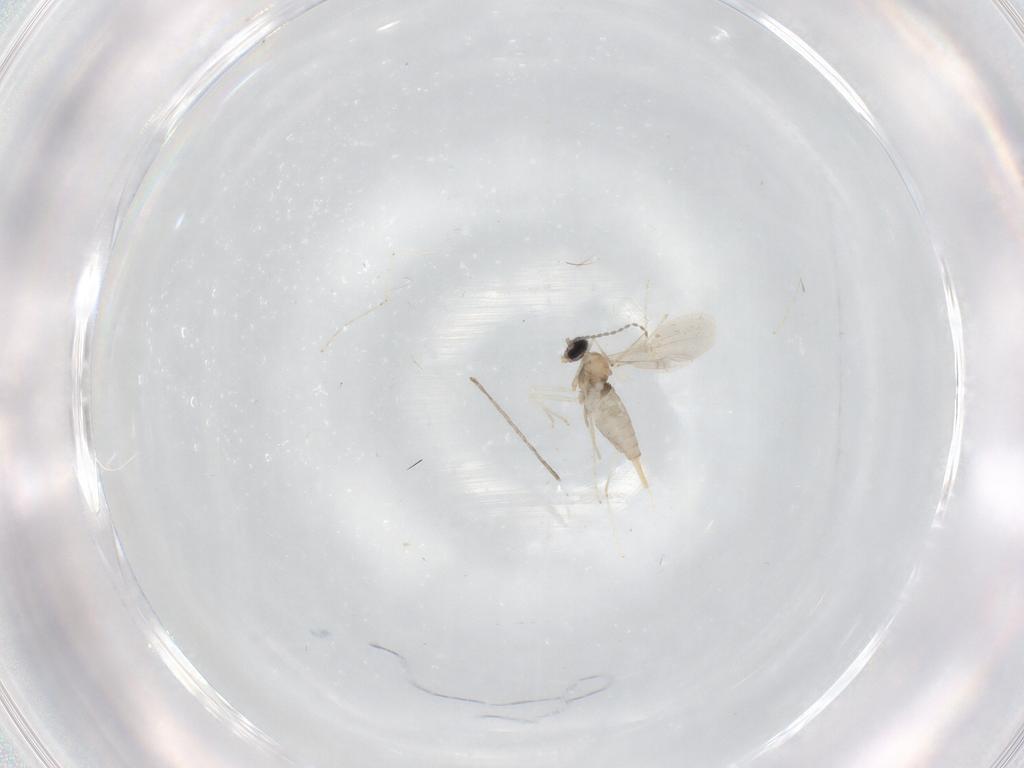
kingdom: Animalia
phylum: Arthropoda
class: Insecta
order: Diptera
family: Cecidomyiidae
